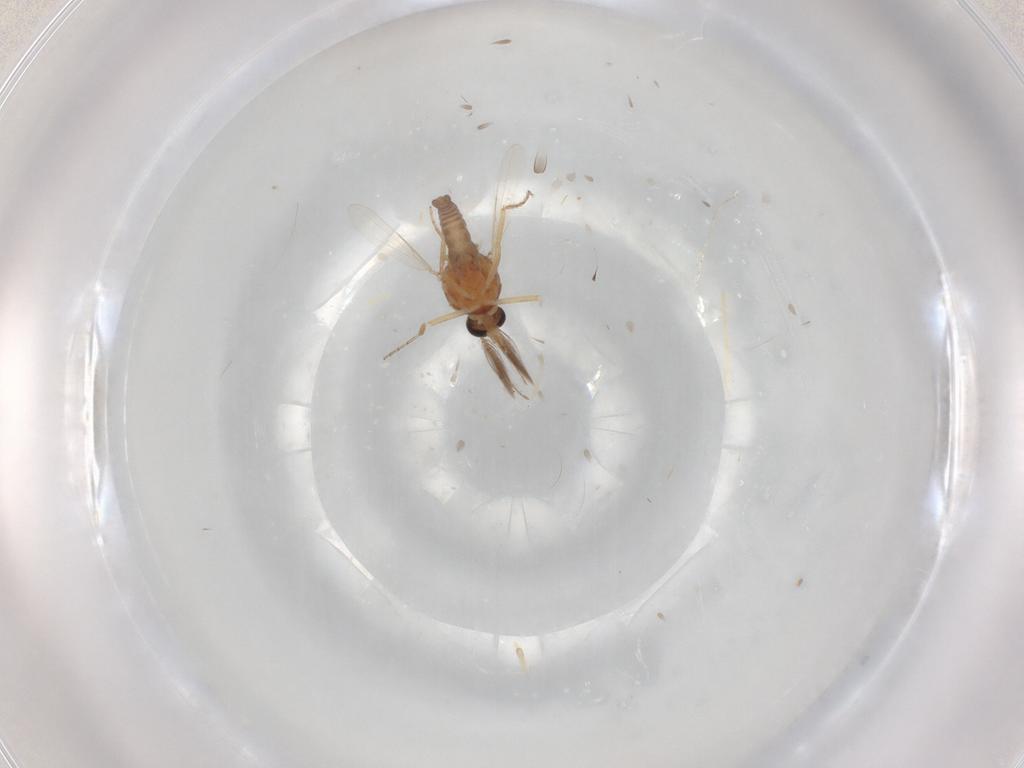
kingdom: Animalia
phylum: Arthropoda
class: Insecta
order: Diptera
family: Ceratopogonidae
